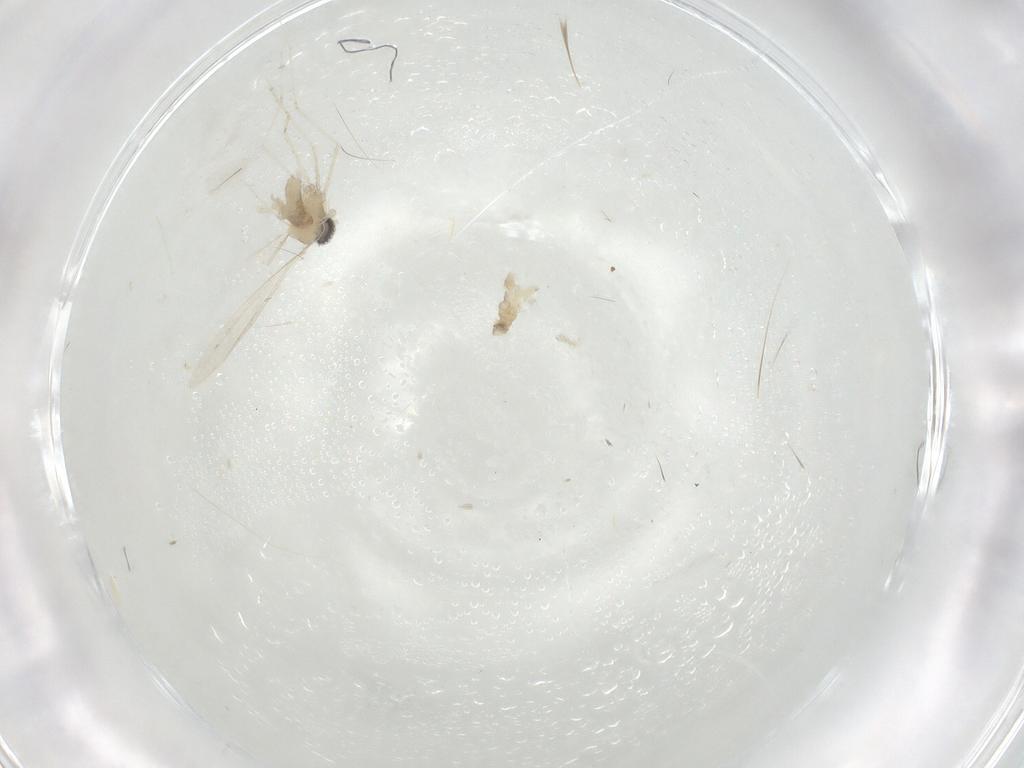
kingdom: Animalia
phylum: Arthropoda
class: Insecta
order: Diptera
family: Cecidomyiidae
